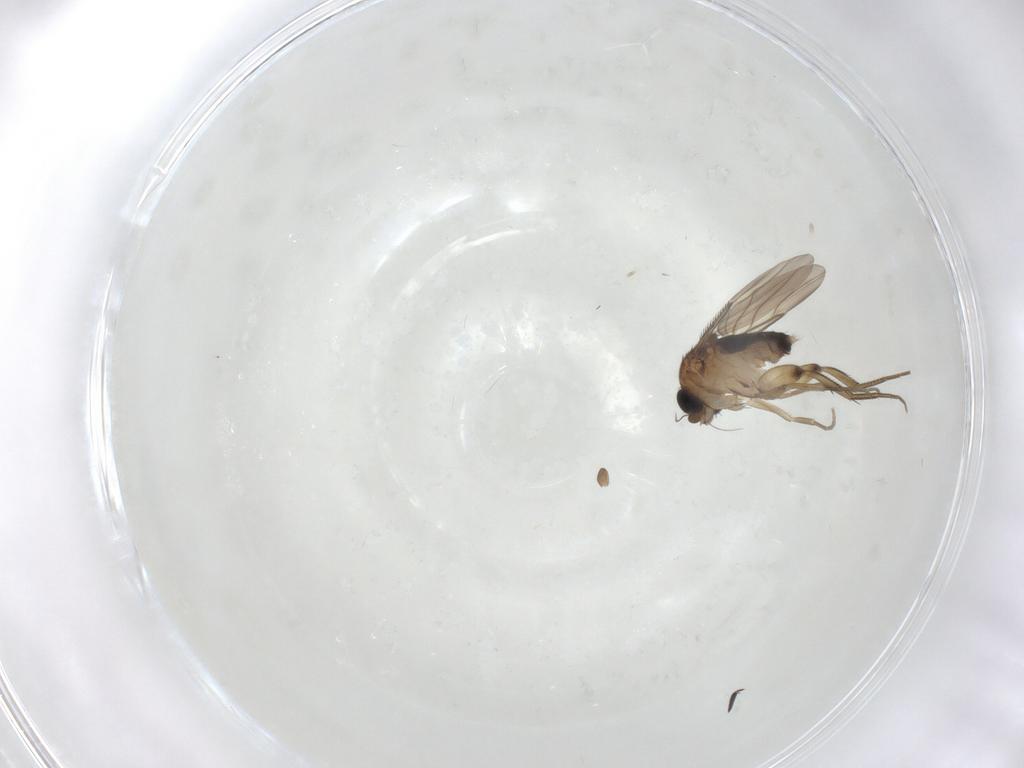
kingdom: Animalia
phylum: Arthropoda
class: Insecta
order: Diptera
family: Phoridae
